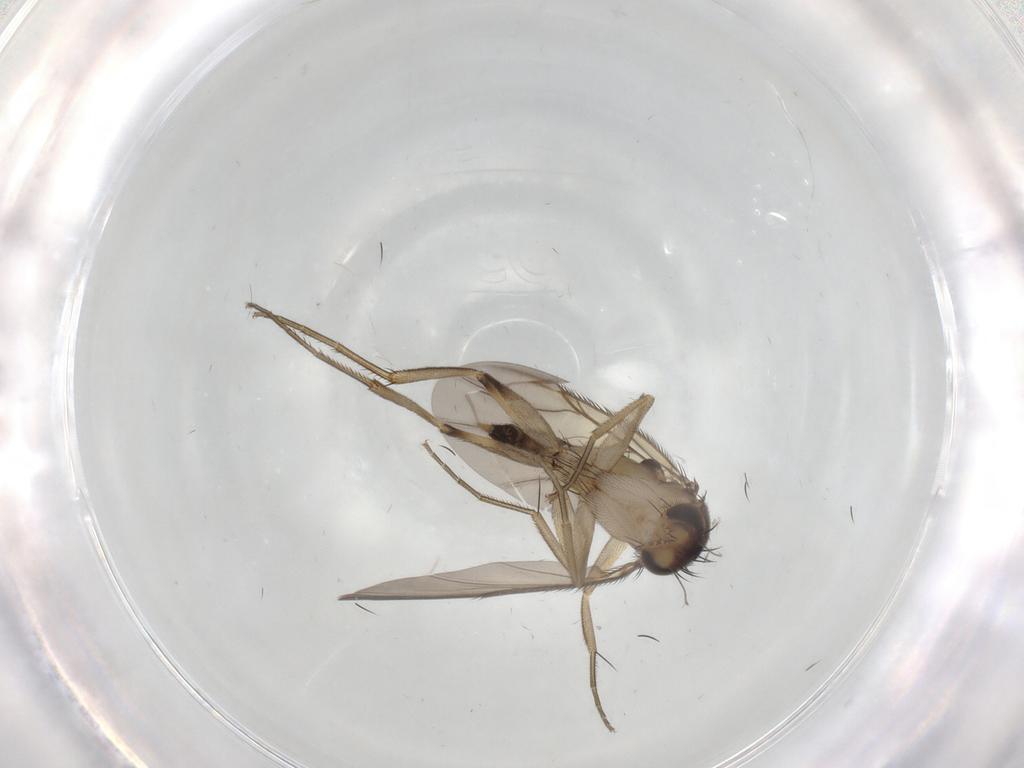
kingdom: Animalia
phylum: Arthropoda
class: Insecta
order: Diptera
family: Phoridae
